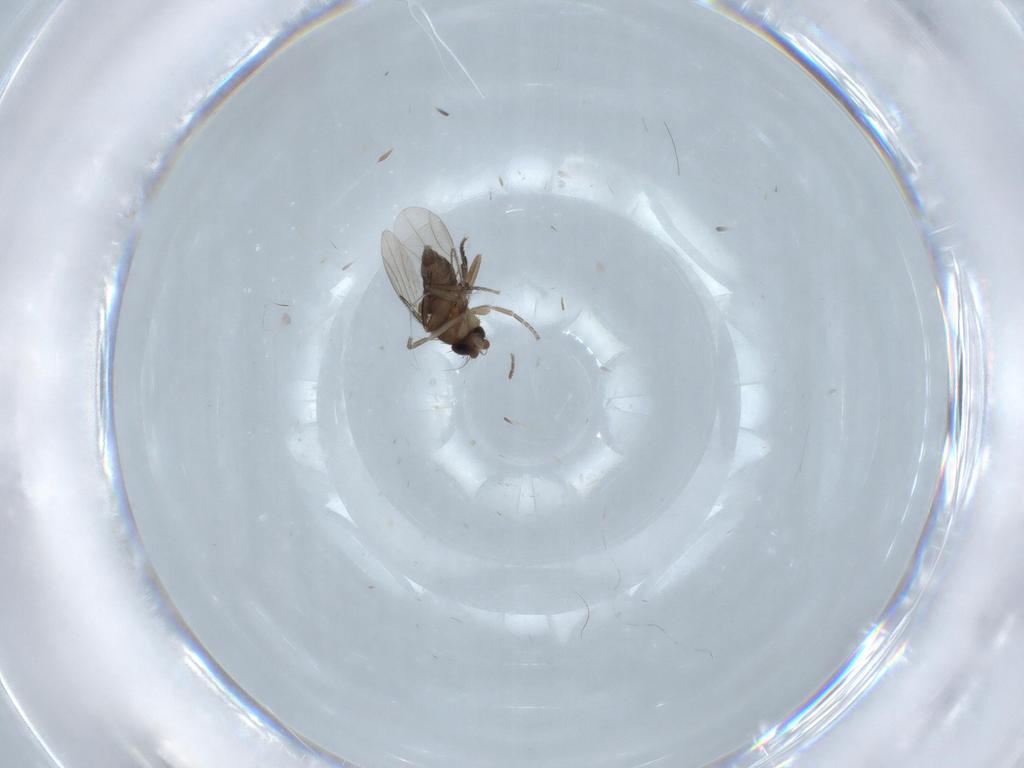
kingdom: Animalia
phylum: Arthropoda
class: Insecta
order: Diptera
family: Phoridae
